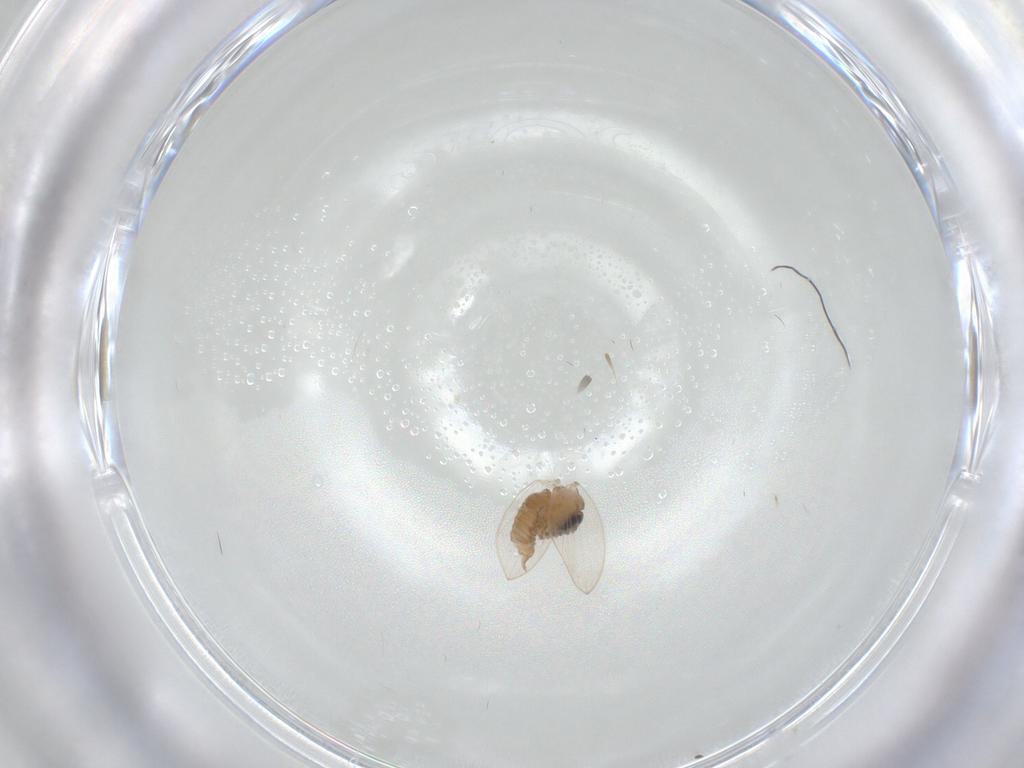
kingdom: Animalia
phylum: Arthropoda
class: Insecta
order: Diptera
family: Psychodidae
